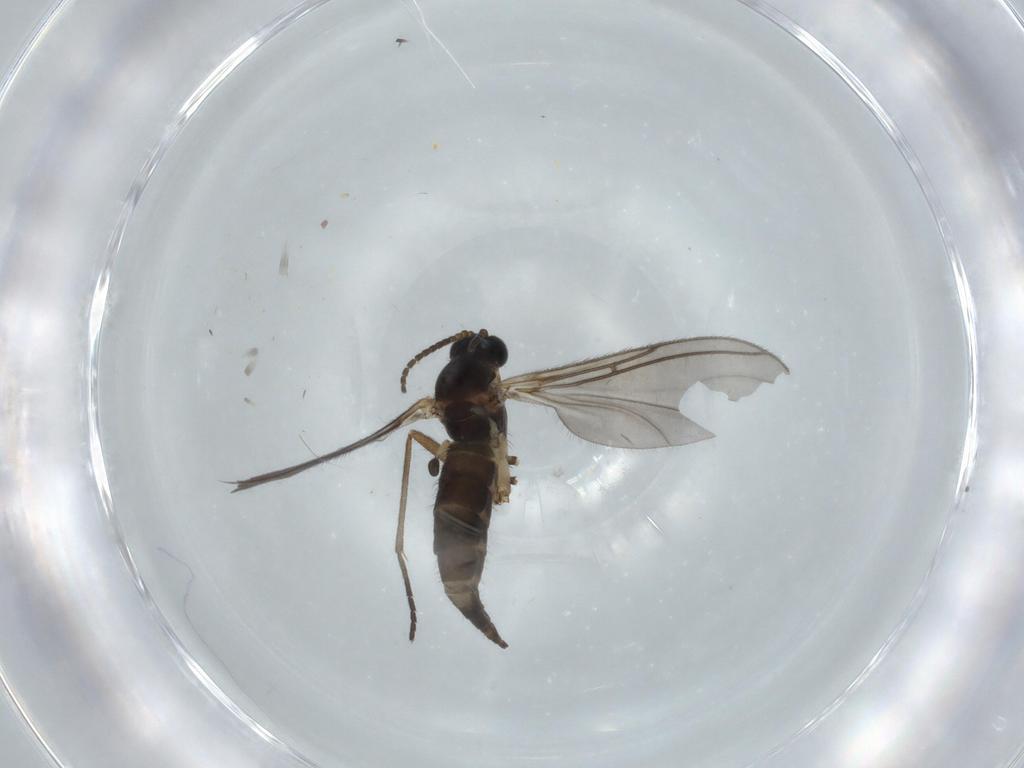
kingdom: Animalia
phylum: Arthropoda
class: Insecta
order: Diptera
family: Sciaridae
